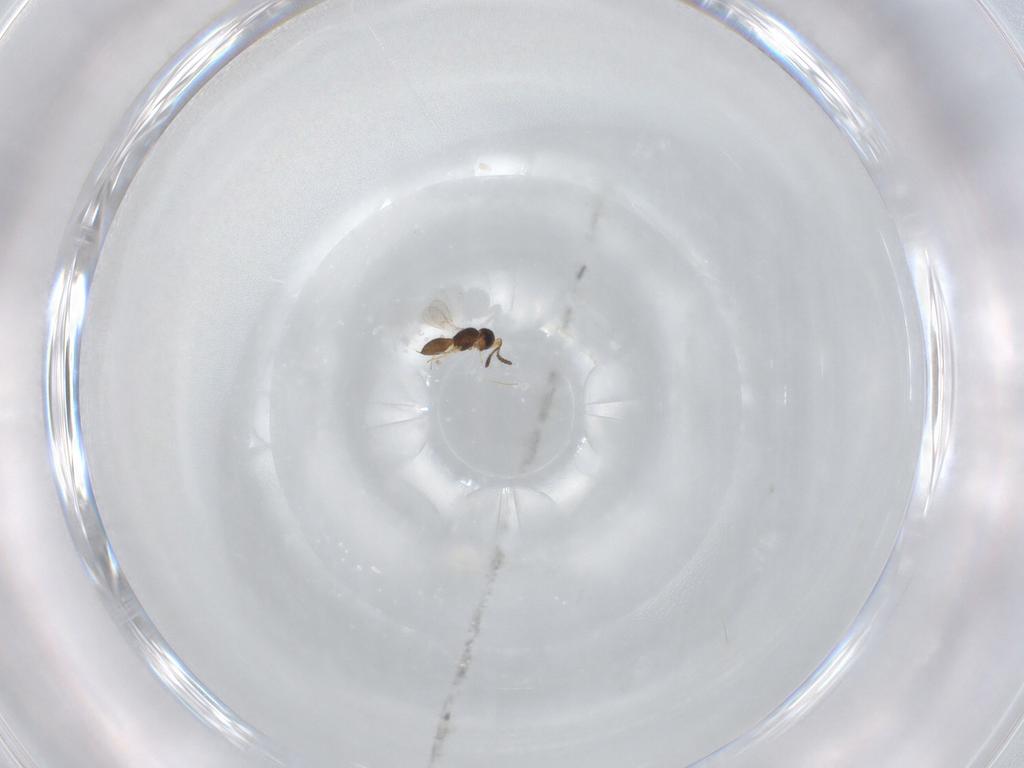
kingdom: Animalia
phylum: Arthropoda
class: Insecta
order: Hymenoptera
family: Scelionidae
